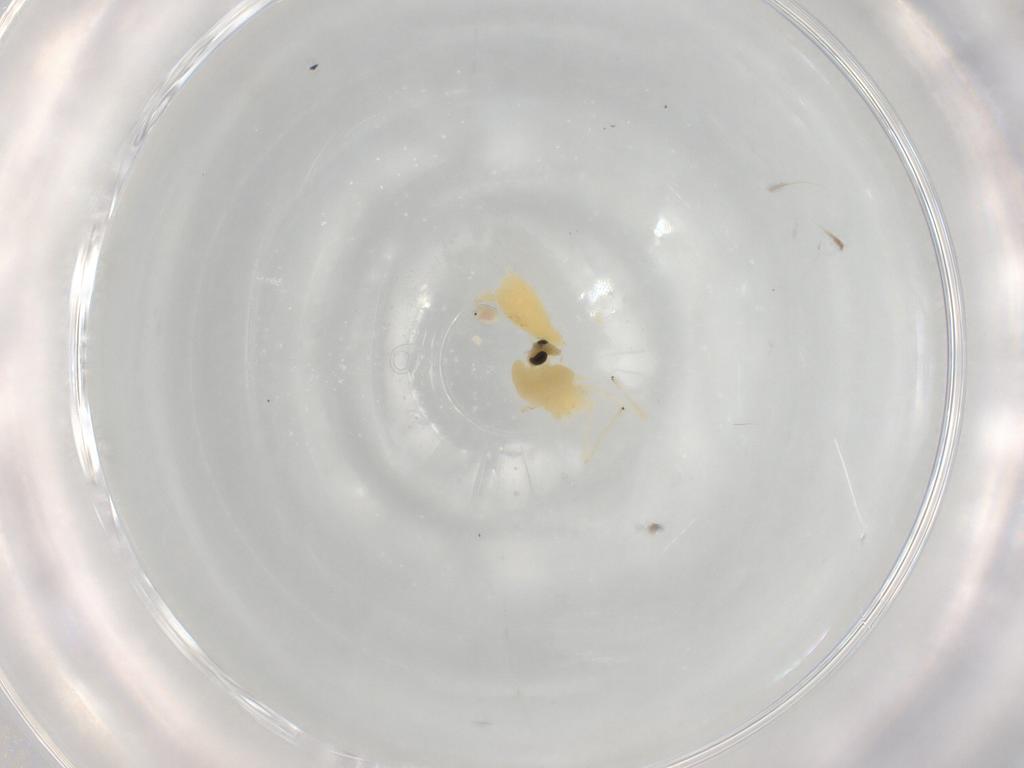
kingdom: Animalia
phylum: Arthropoda
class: Insecta
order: Diptera
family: Chironomidae
